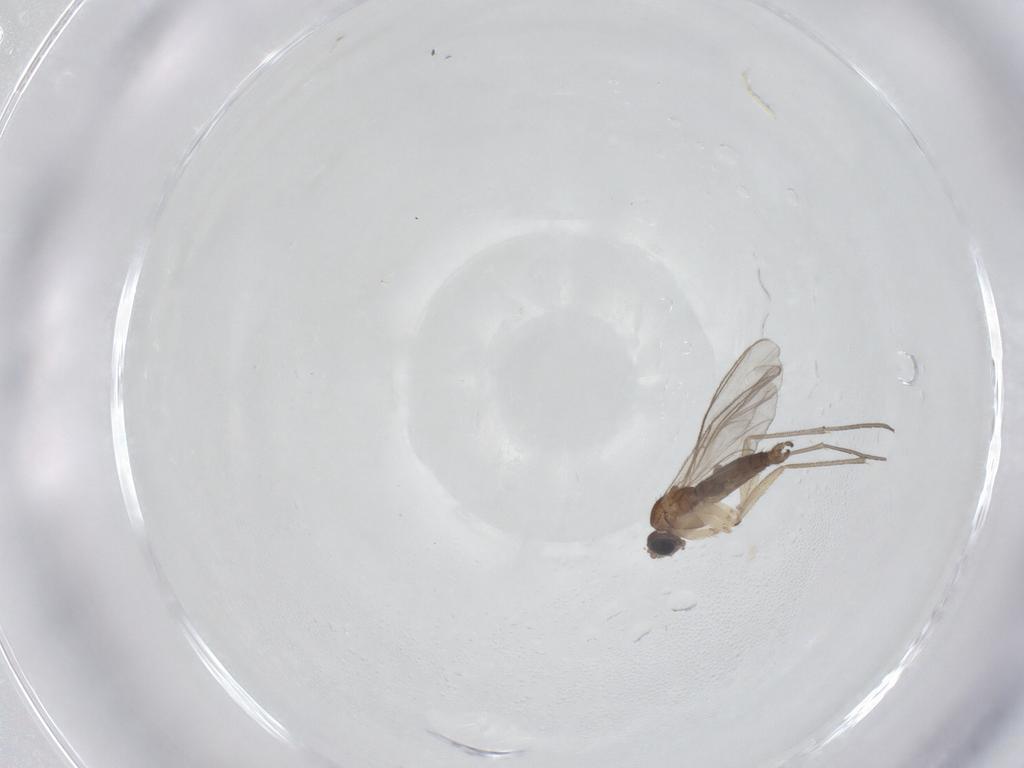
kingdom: Animalia
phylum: Arthropoda
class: Insecta
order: Diptera
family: Sciaridae
